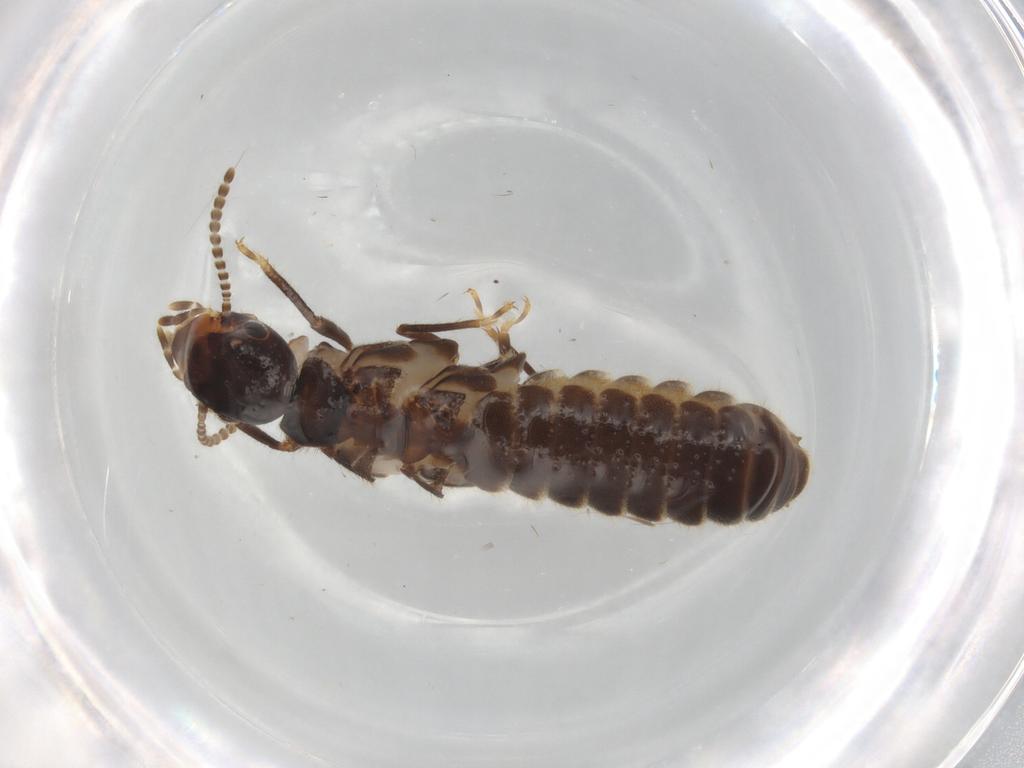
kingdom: Animalia
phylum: Arthropoda
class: Insecta
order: Blattodea
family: Termitidae
